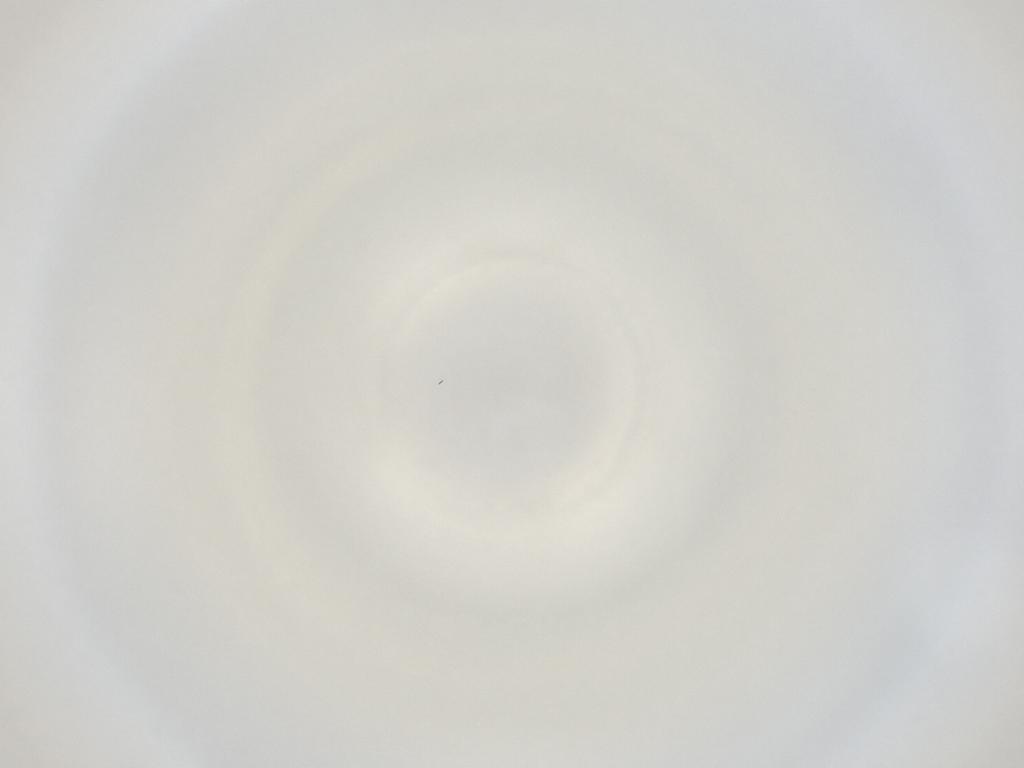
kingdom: Animalia
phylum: Arthropoda
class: Insecta
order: Diptera
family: Cecidomyiidae
